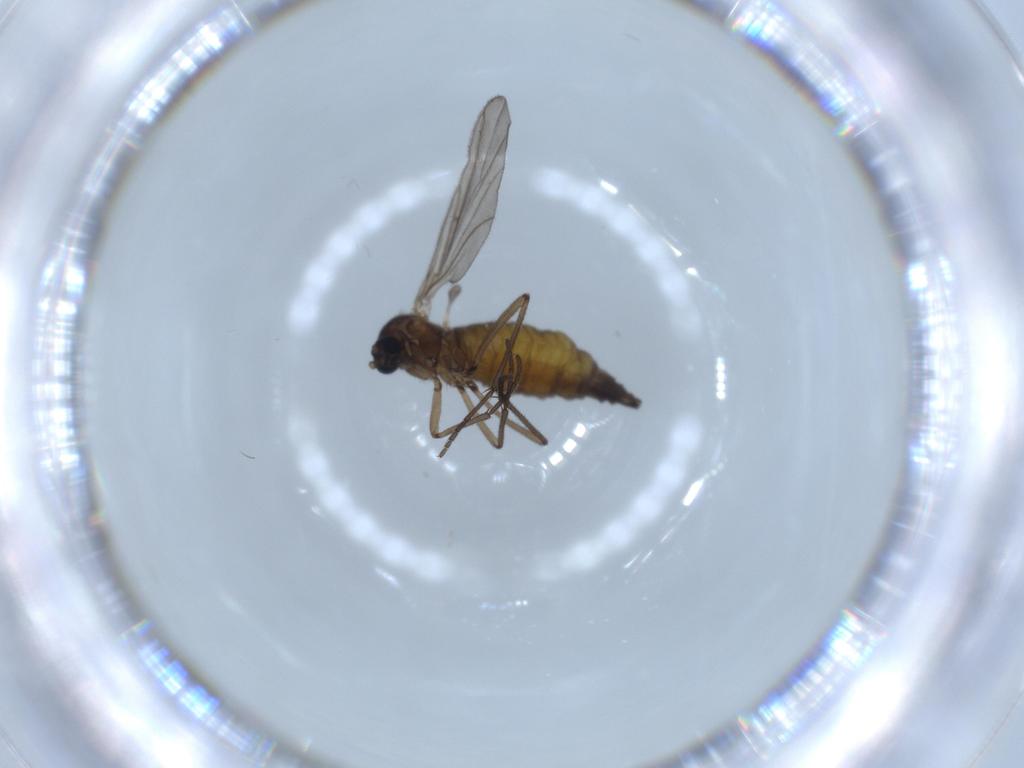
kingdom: Animalia
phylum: Arthropoda
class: Insecta
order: Diptera
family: Sciaridae
